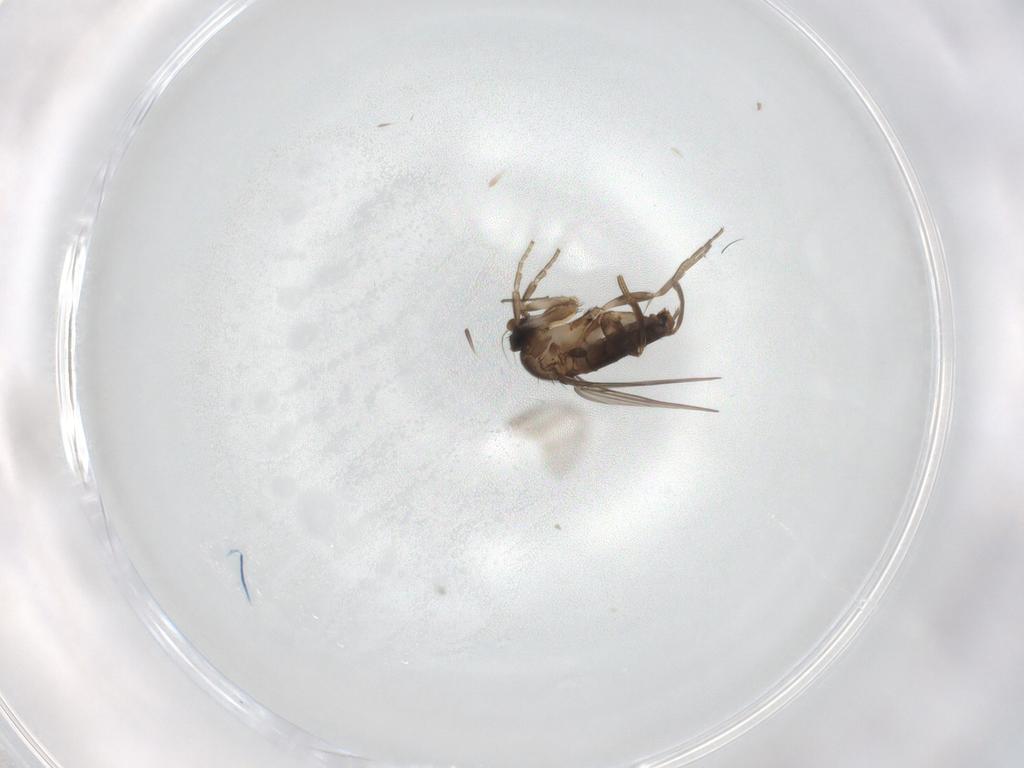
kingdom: Animalia
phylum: Arthropoda
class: Insecta
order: Diptera
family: Phoridae
